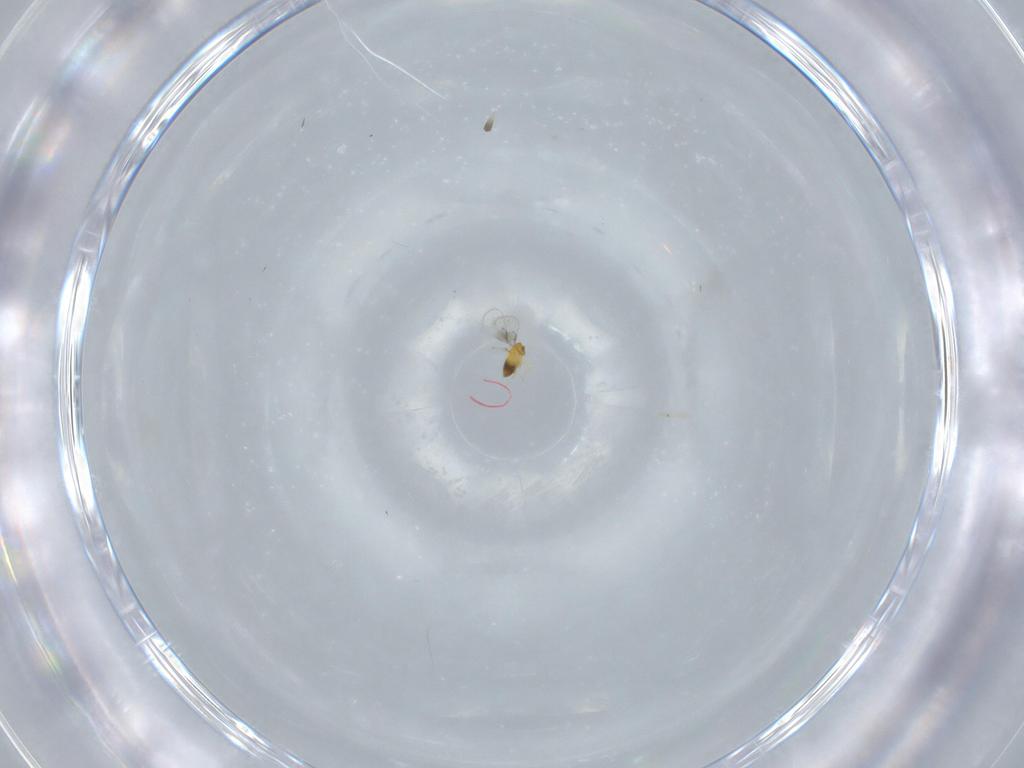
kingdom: Animalia
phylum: Arthropoda
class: Insecta
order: Hymenoptera
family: Trichogrammatidae
